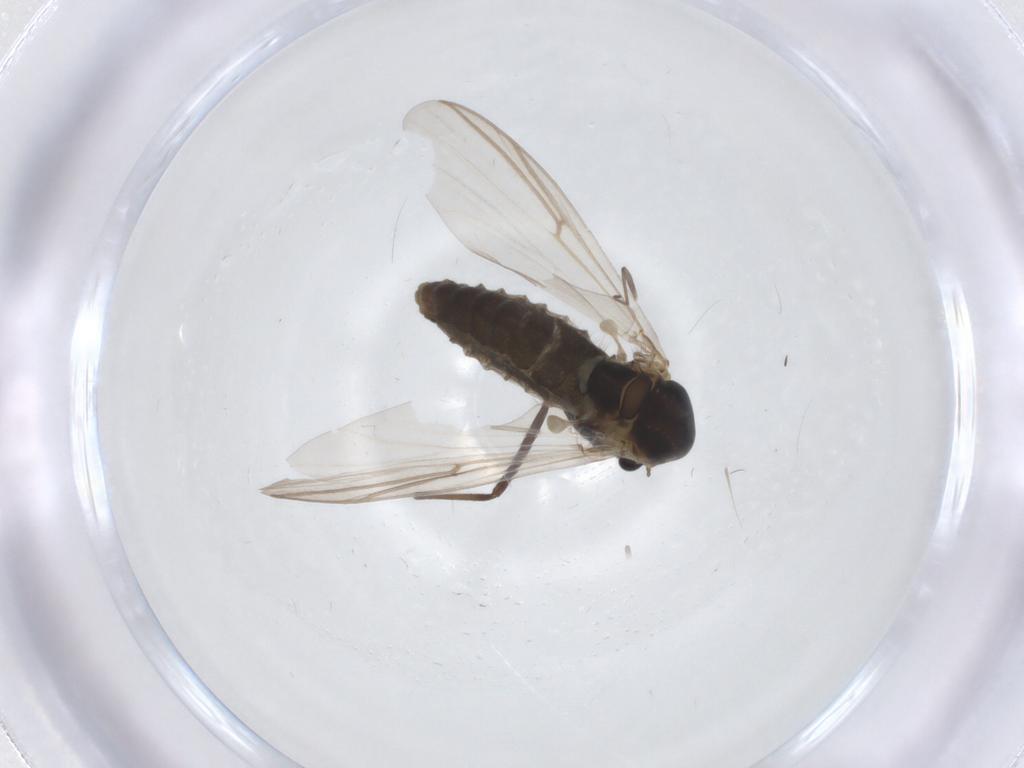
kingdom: Animalia
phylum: Arthropoda
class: Insecta
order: Diptera
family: Chironomidae
